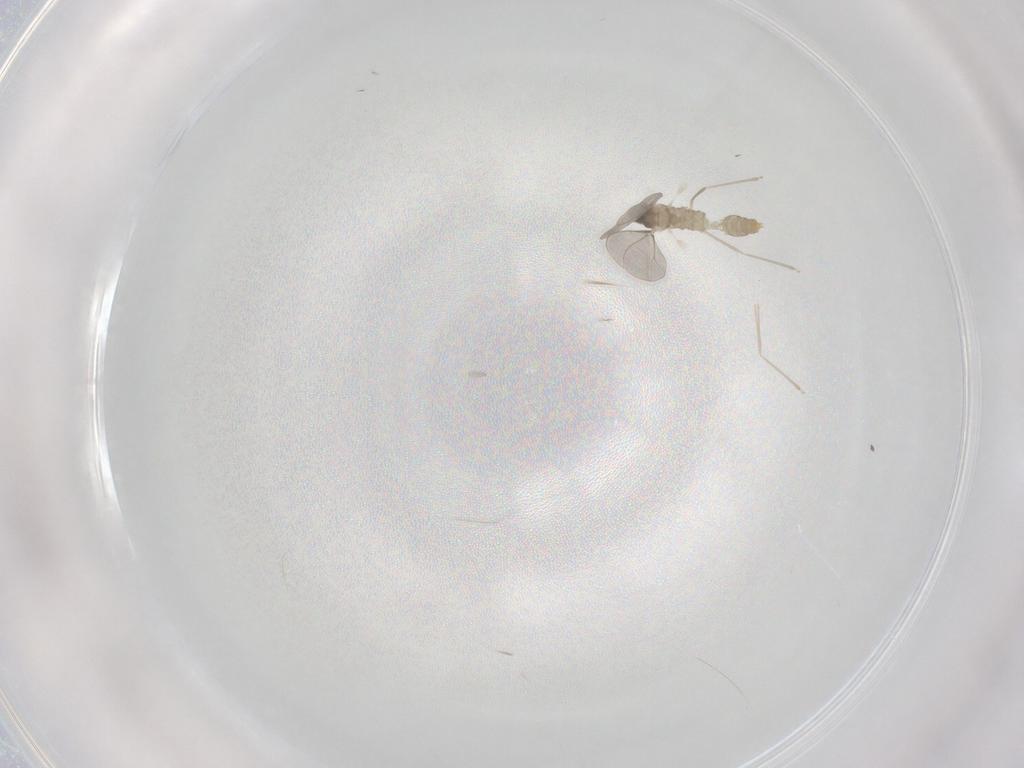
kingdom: Animalia
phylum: Arthropoda
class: Insecta
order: Diptera
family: Cecidomyiidae
